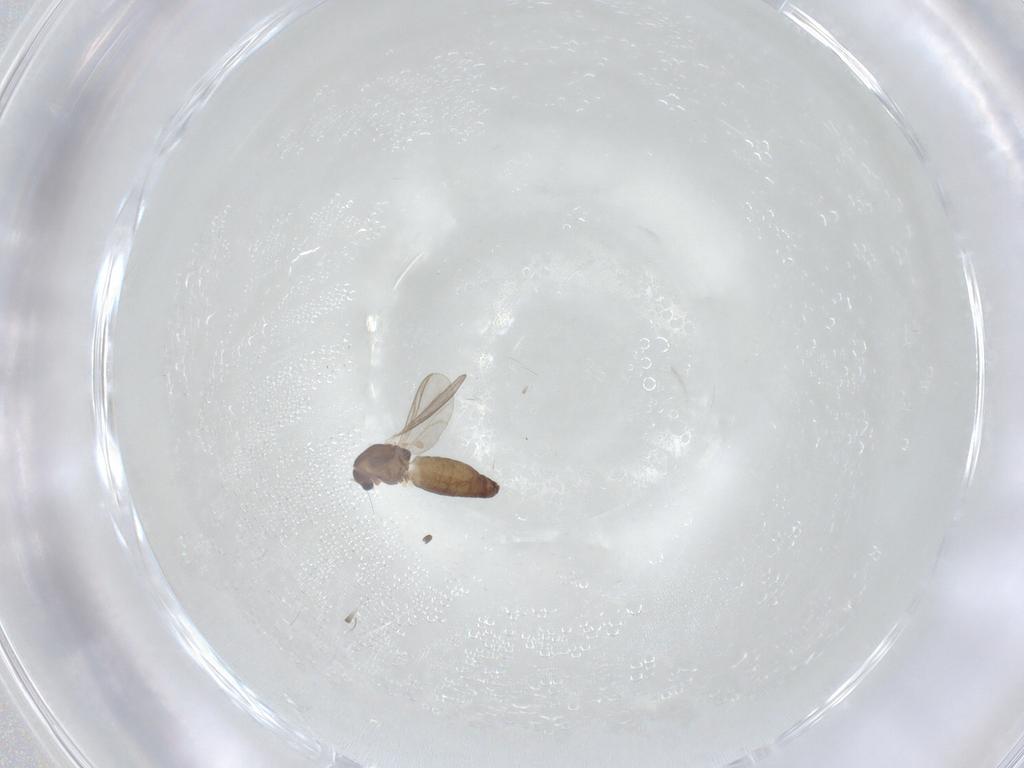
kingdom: Animalia
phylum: Arthropoda
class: Insecta
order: Diptera
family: Chironomidae
